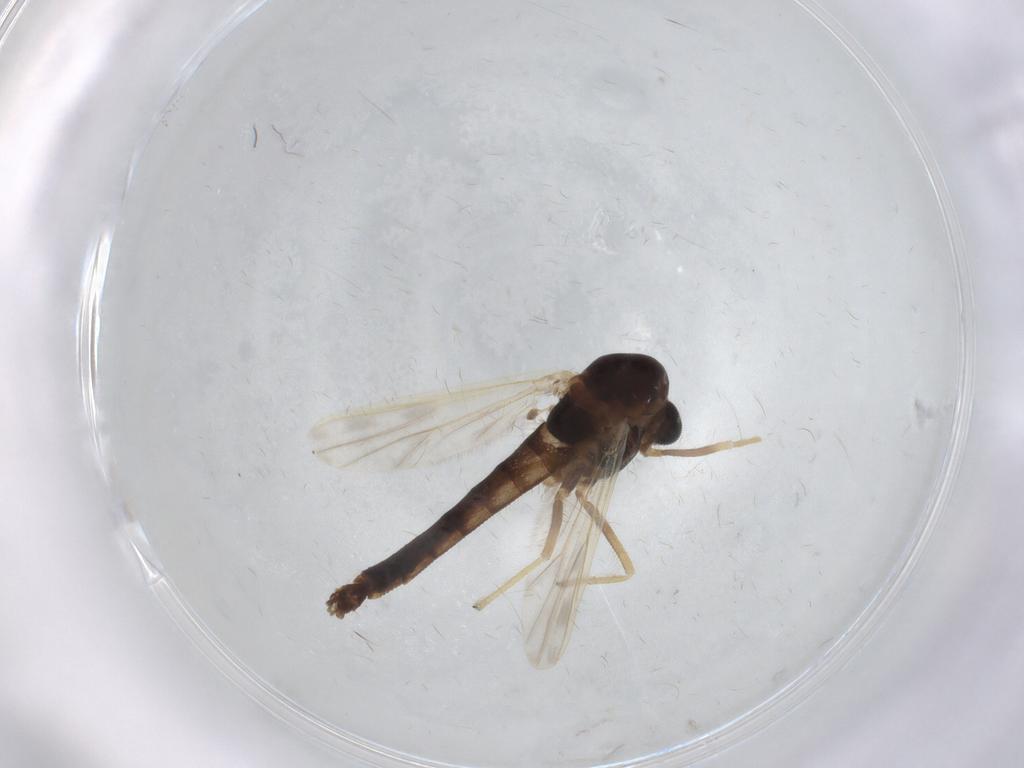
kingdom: Animalia
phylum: Arthropoda
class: Insecta
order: Diptera
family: Chironomidae
